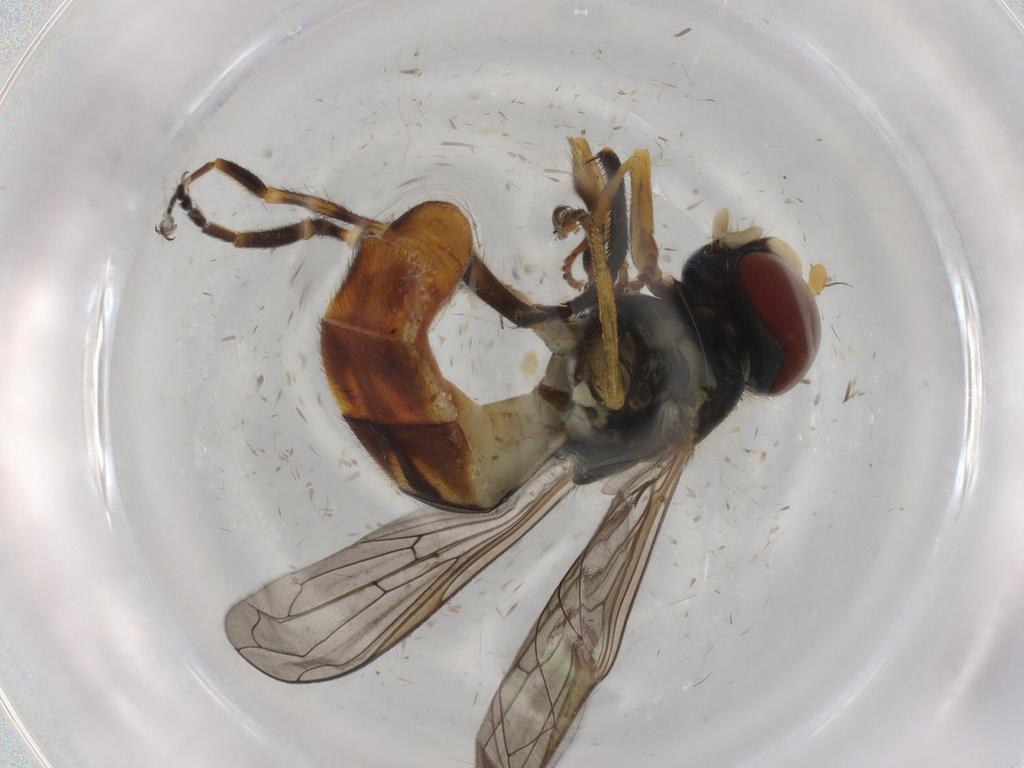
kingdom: Animalia
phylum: Arthropoda
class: Insecta
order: Diptera
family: Syrphidae
